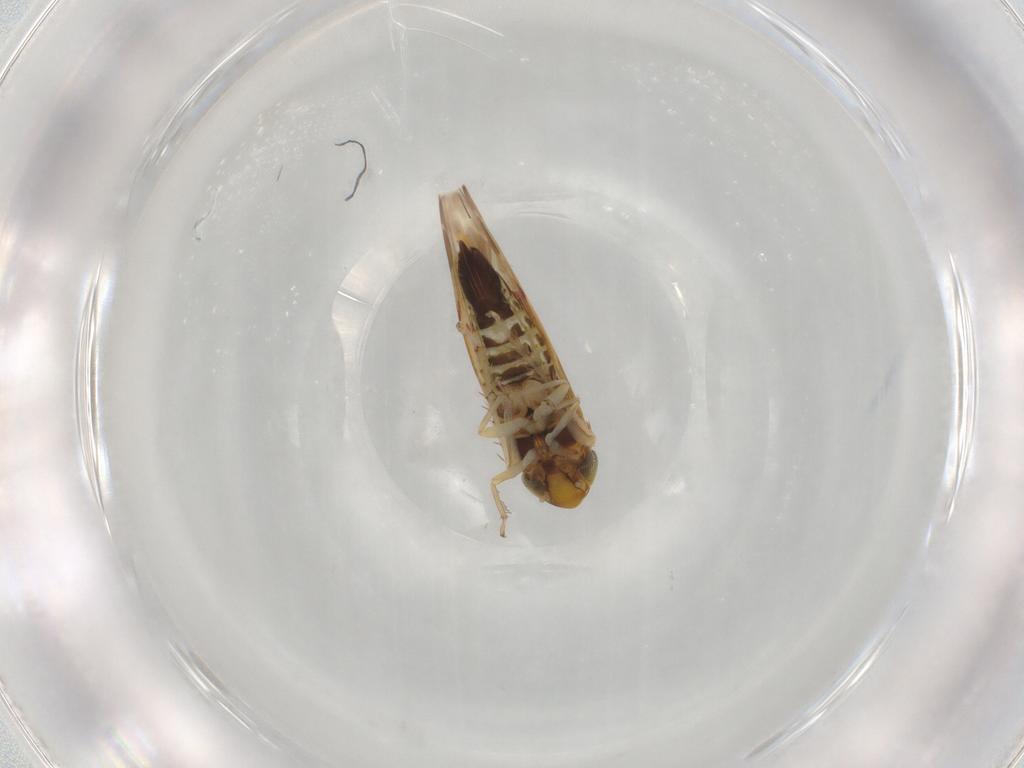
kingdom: Animalia
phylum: Arthropoda
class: Insecta
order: Hemiptera
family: Cicadellidae
